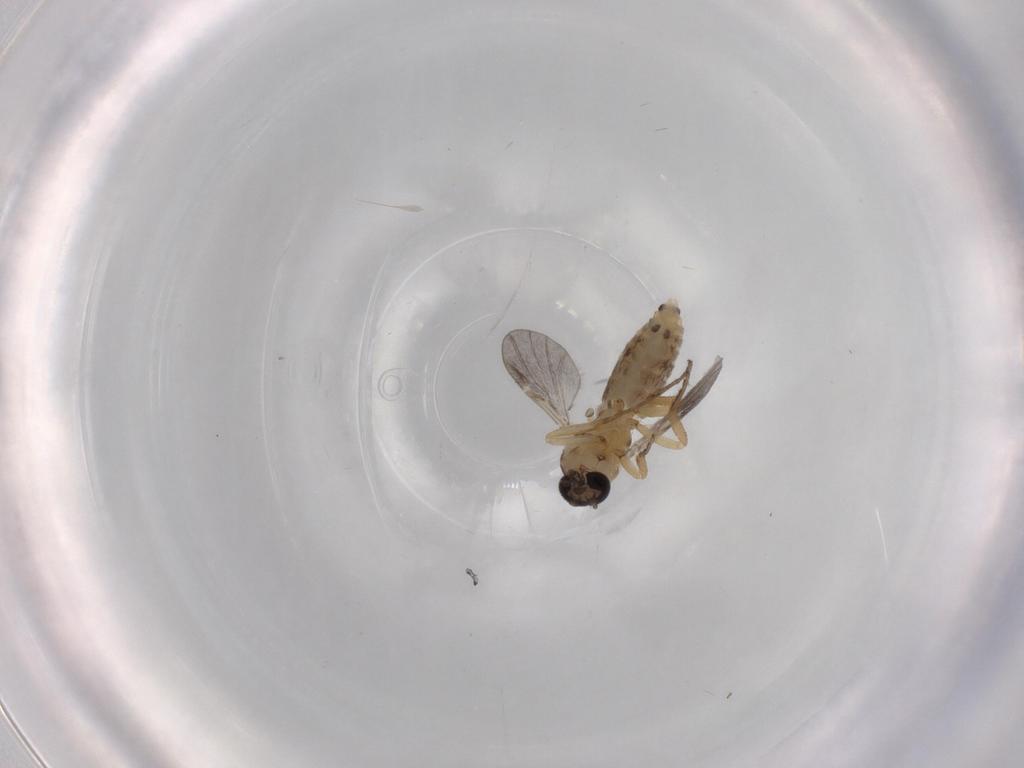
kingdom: Animalia
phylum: Arthropoda
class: Insecta
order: Diptera
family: Ceratopogonidae
